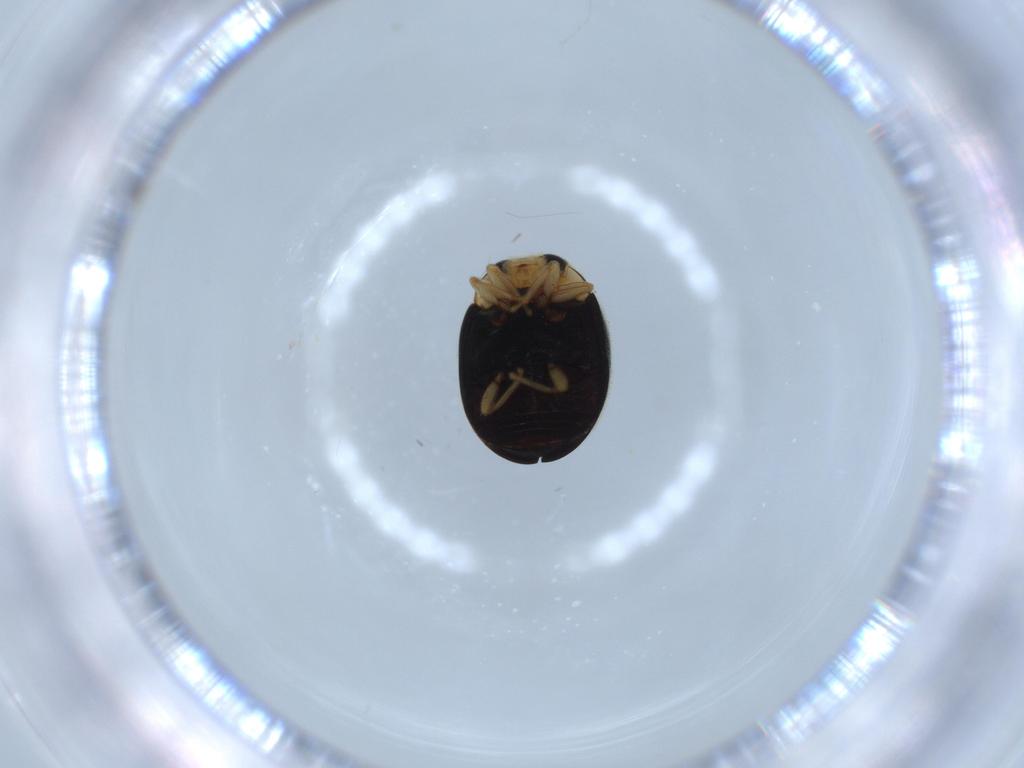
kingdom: Animalia
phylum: Arthropoda
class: Insecta
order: Coleoptera
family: Coccinellidae
